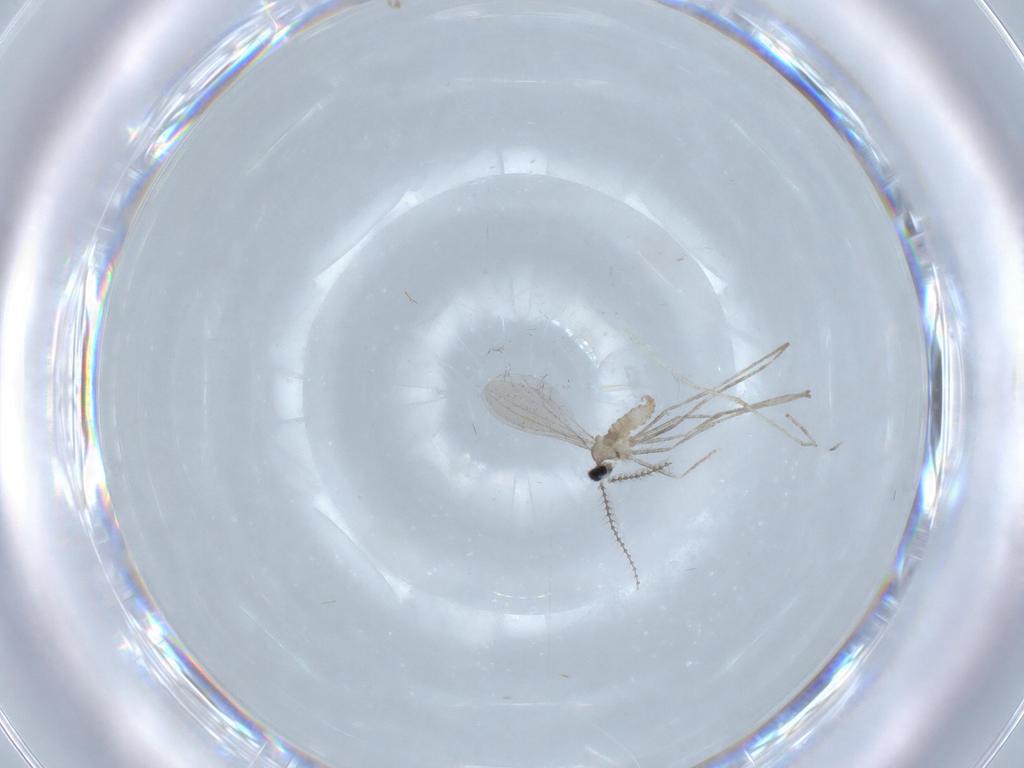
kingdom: Animalia
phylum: Arthropoda
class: Insecta
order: Diptera
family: Cecidomyiidae
